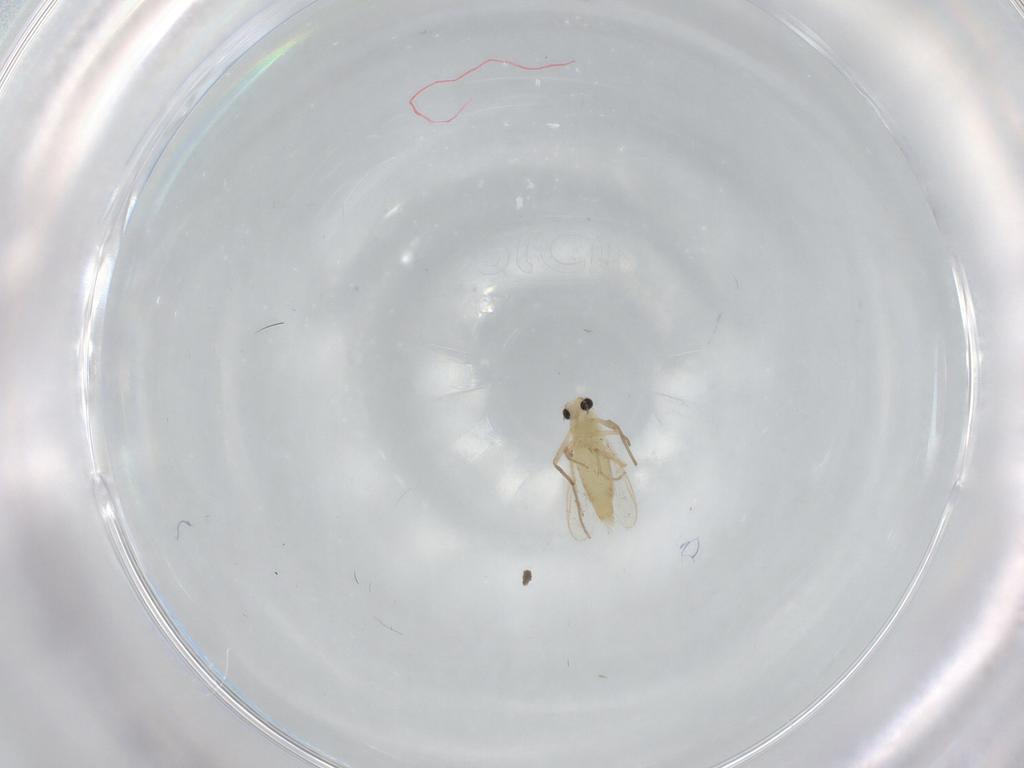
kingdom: Animalia
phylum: Arthropoda
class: Insecta
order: Diptera
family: Chironomidae
